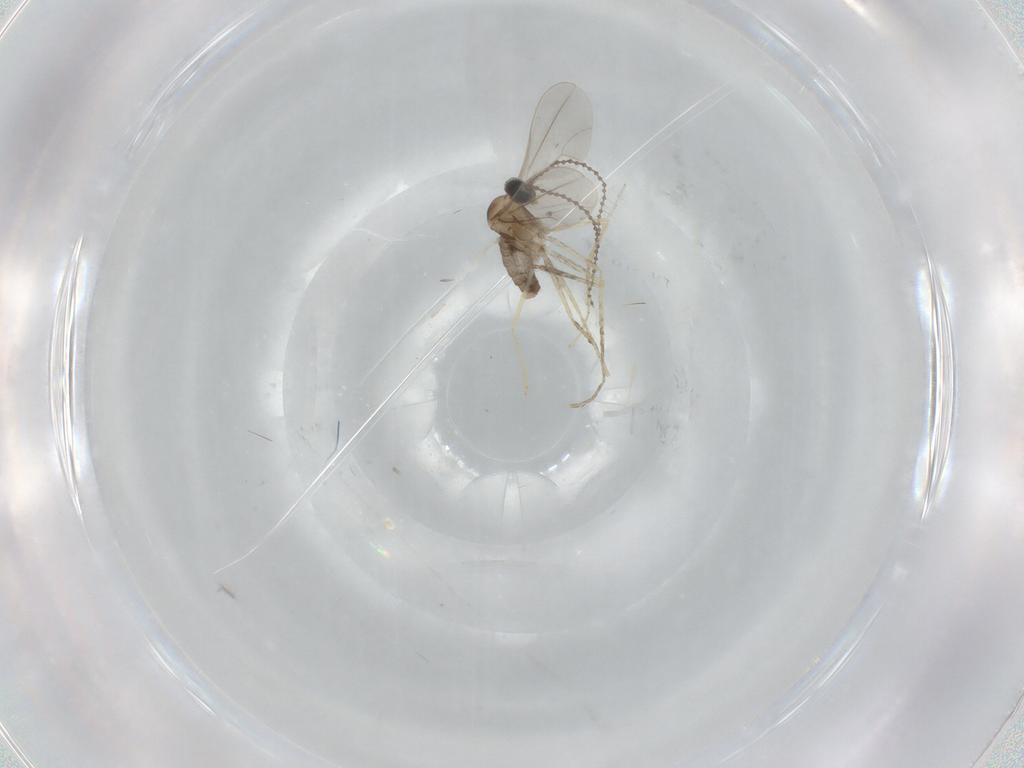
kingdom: Animalia
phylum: Arthropoda
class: Insecta
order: Diptera
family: Cecidomyiidae
